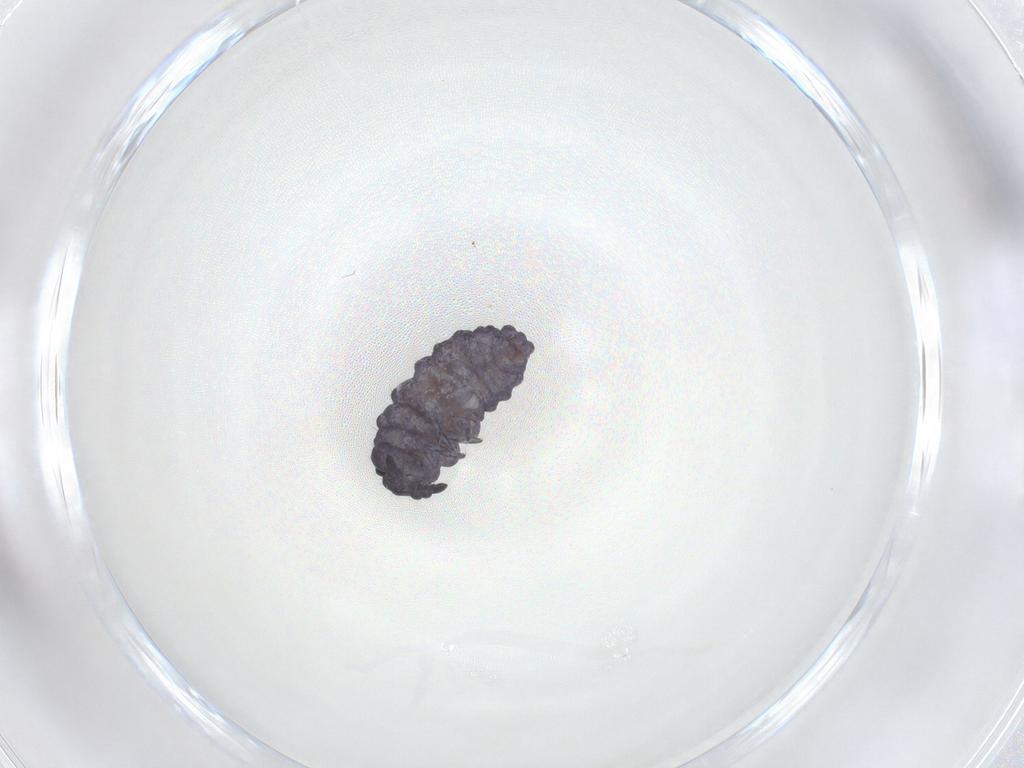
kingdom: Animalia
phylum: Arthropoda
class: Collembola
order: Poduromorpha
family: Neanuridae
